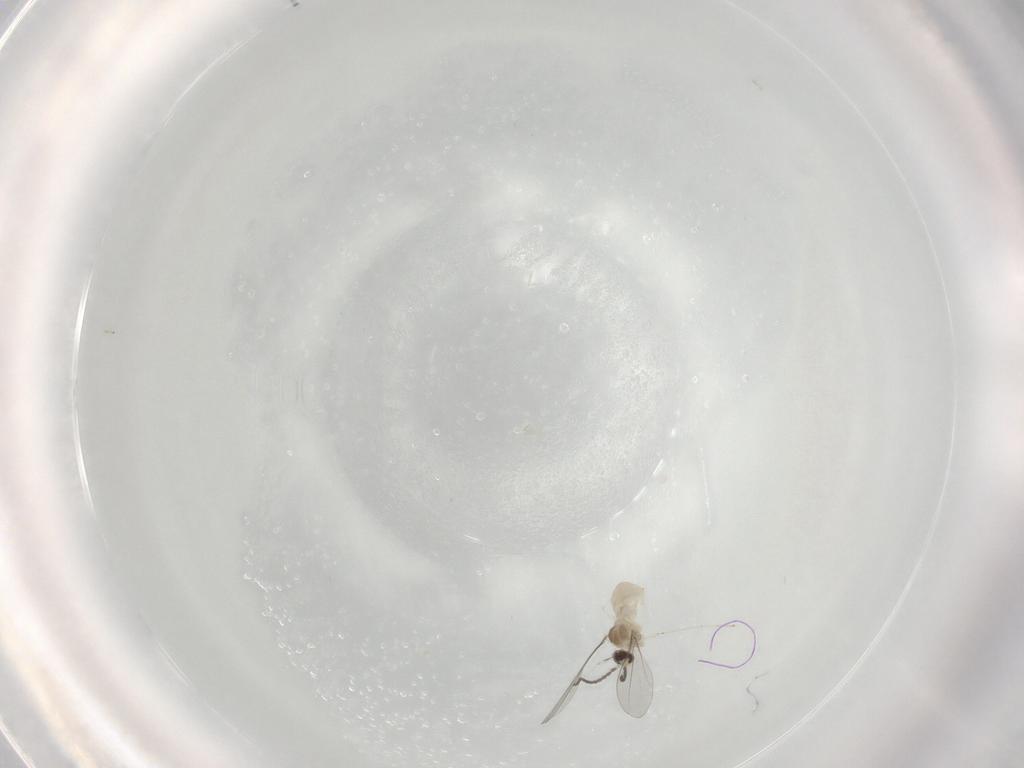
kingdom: Animalia
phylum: Arthropoda
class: Insecta
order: Diptera
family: Cecidomyiidae
